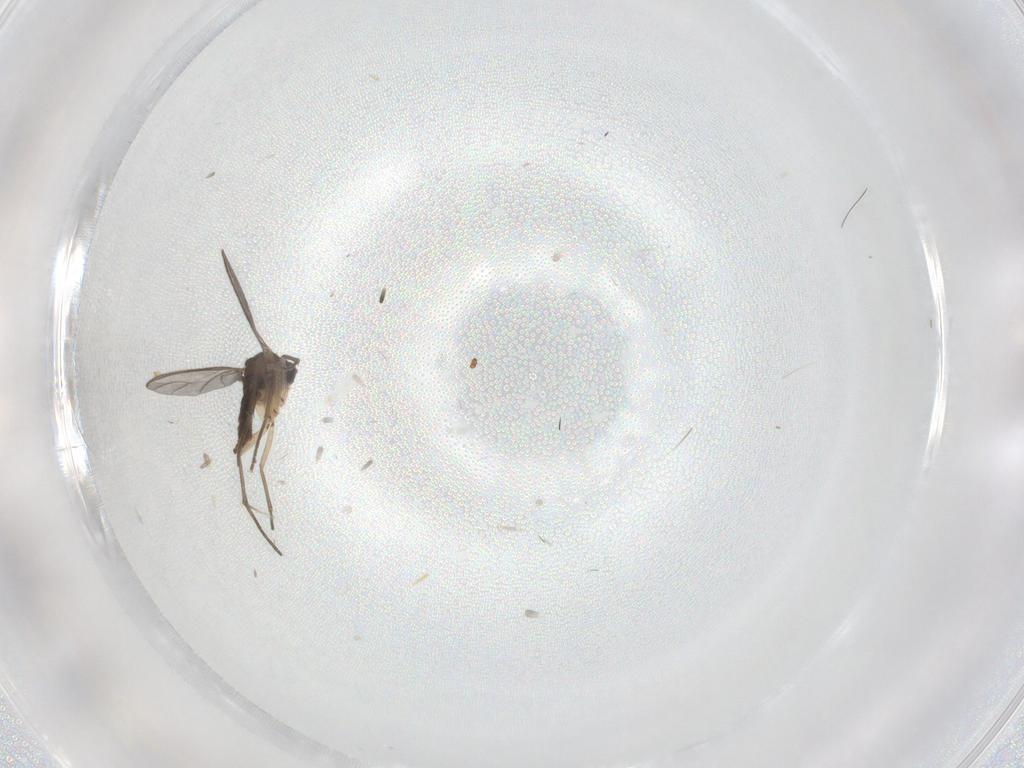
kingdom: Animalia
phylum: Arthropoda
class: Insecta
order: Diptera
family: Sciaridae
